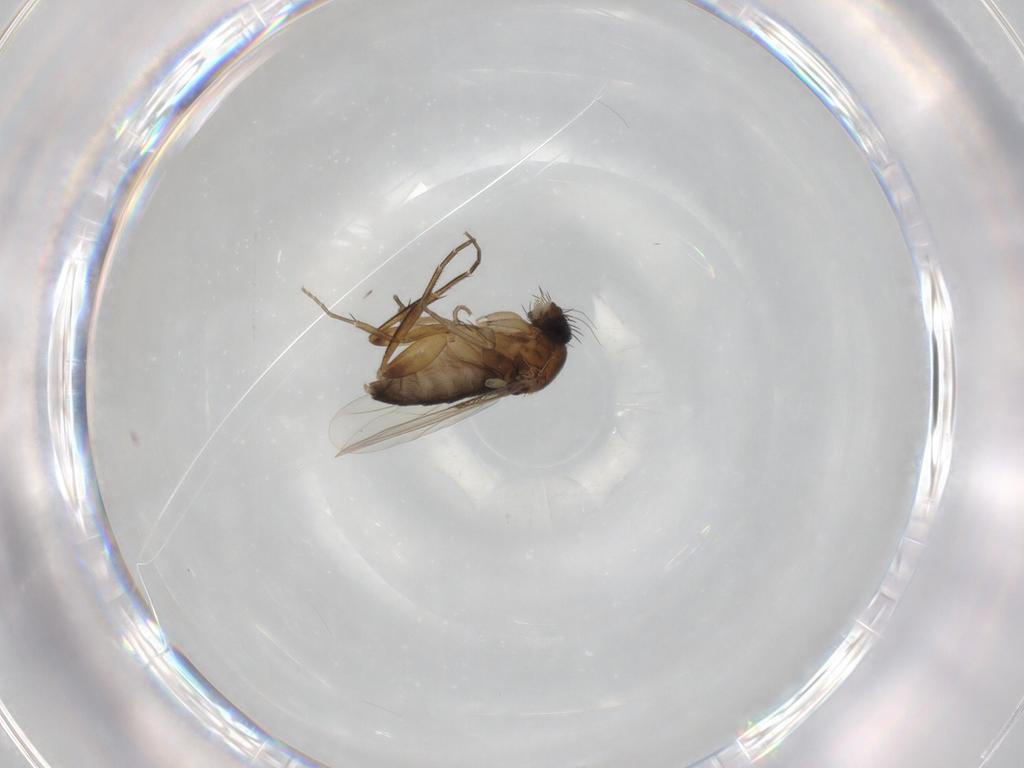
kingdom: Animalia
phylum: Arthropoda
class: Insecta
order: Diptera
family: Phoridae
